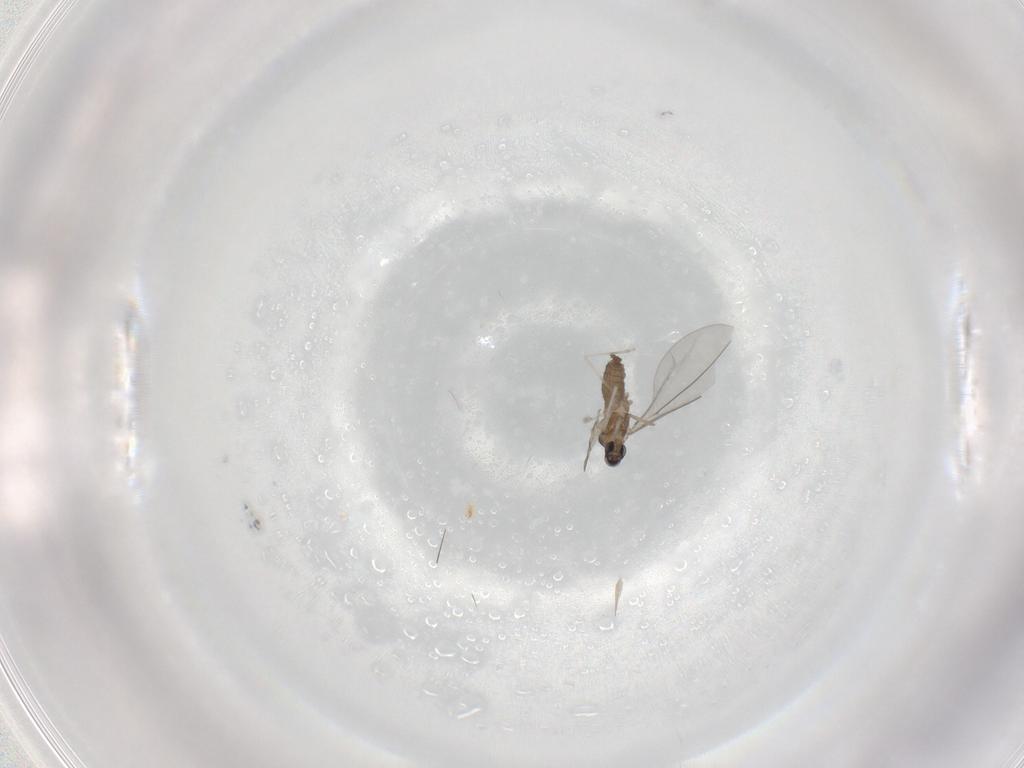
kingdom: Animalia
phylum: Arthropoda
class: Insecta
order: Diptera
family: Cecidomyiidae
